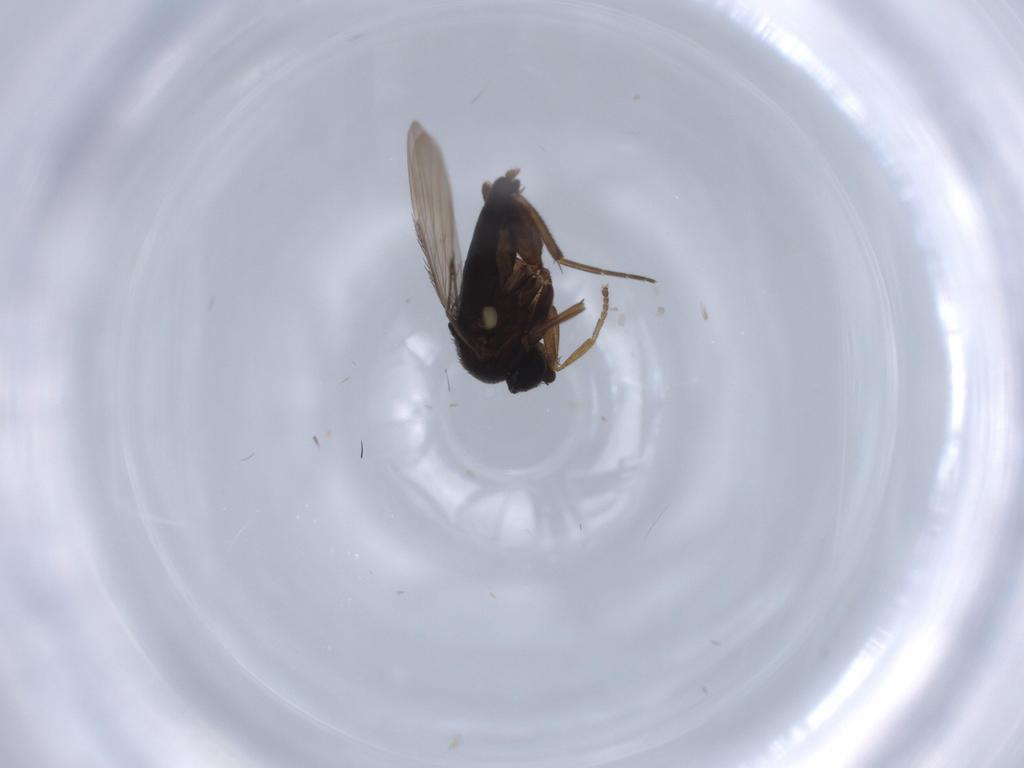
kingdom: Animalia
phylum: Arthropoda
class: Insecta
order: Diptera
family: Phoridae
